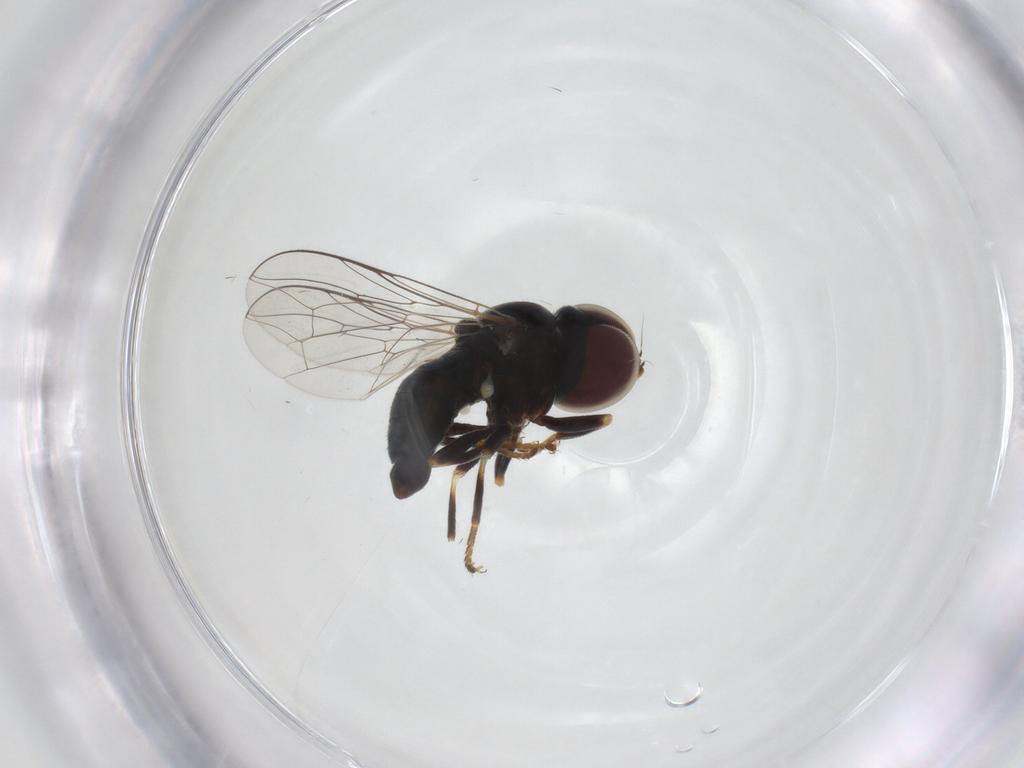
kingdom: Animalia
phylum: Arthropoda
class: Insecta
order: Diptera
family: Pipunculidae
